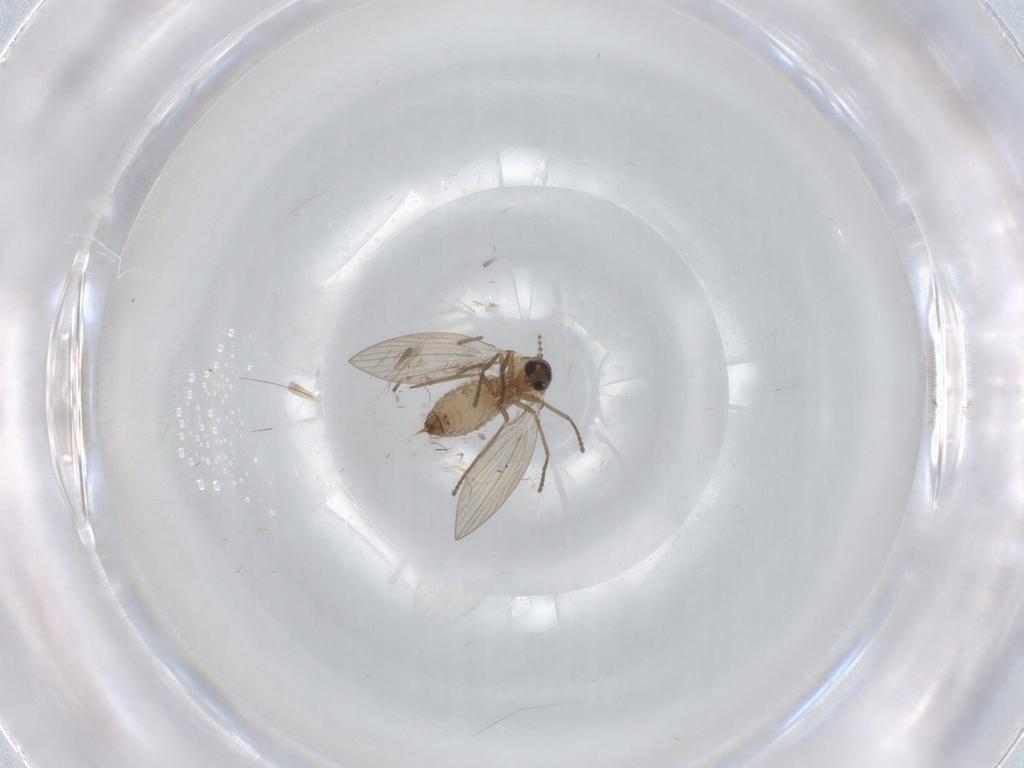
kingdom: Animalia
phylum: Arthropoda
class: Insecta
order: Diptera
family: Psychodidae
